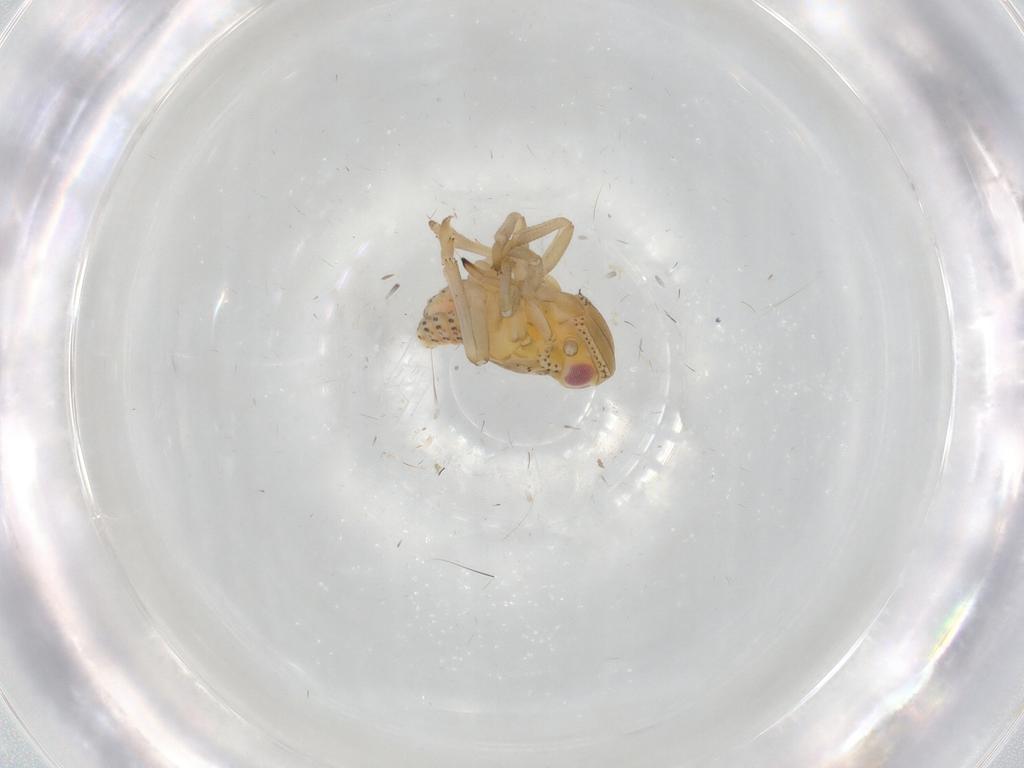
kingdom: Animalia
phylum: Arthropoda
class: Insecta
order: Hemiptera
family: Tropiduchidae
